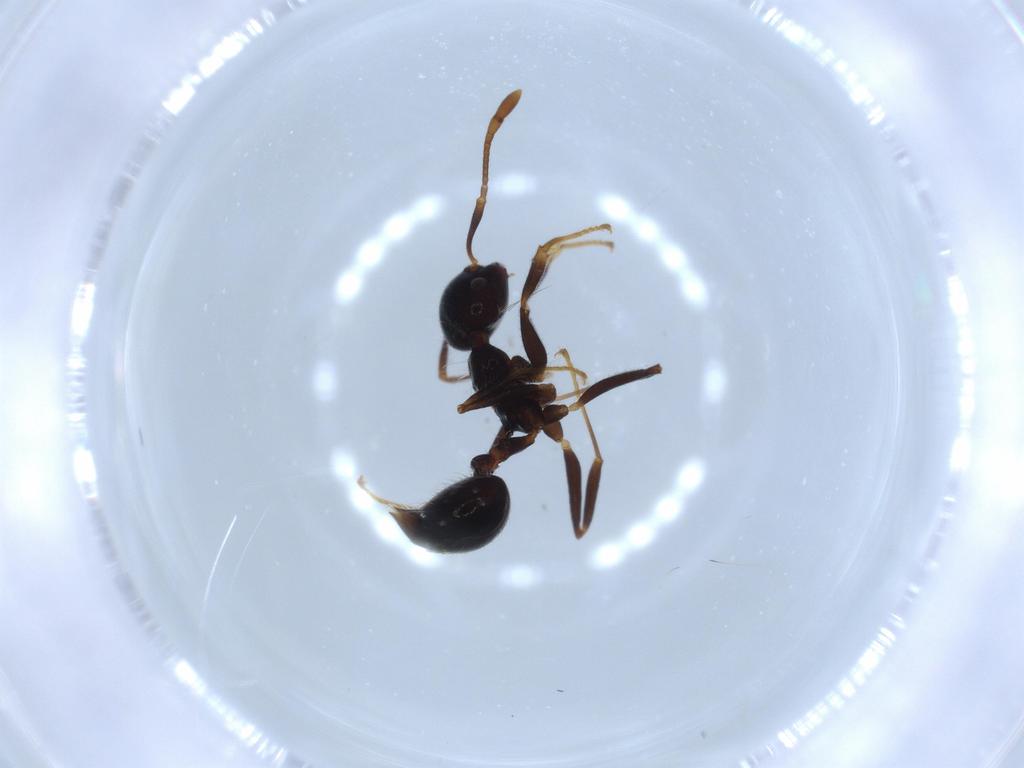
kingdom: Animalia
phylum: Arthropoda
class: Insecta
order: Hymenoptera
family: Formicidae
